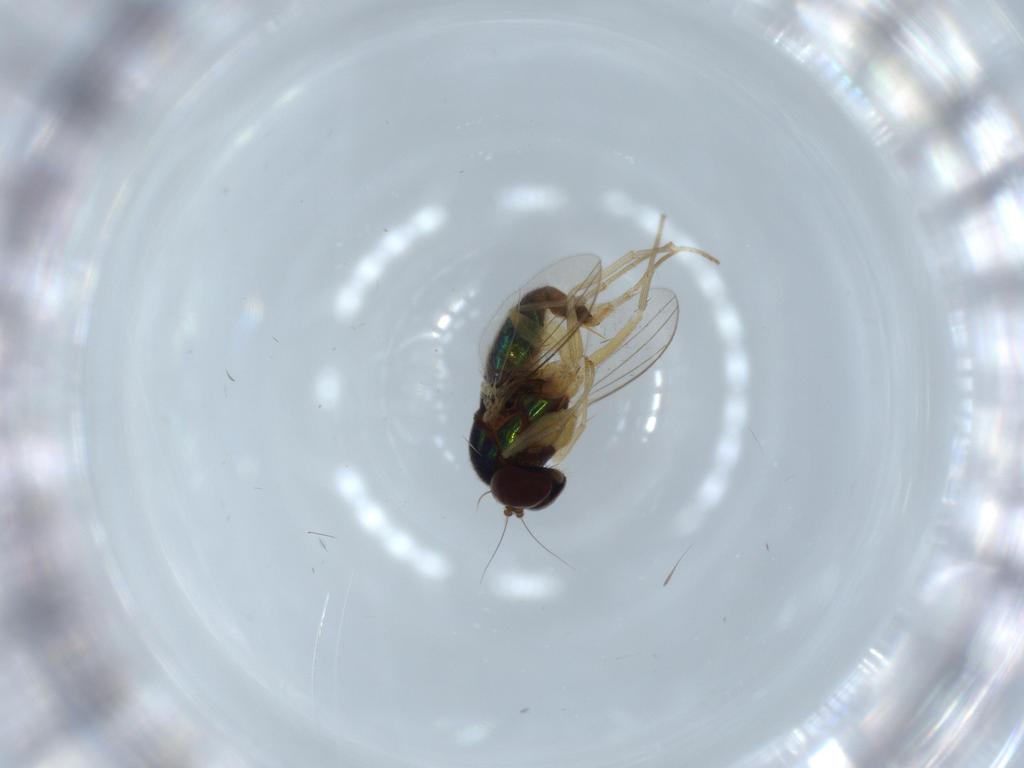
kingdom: Animalia
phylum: Arthropoda
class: Insecta
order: Diptera
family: Dolichopodidae
